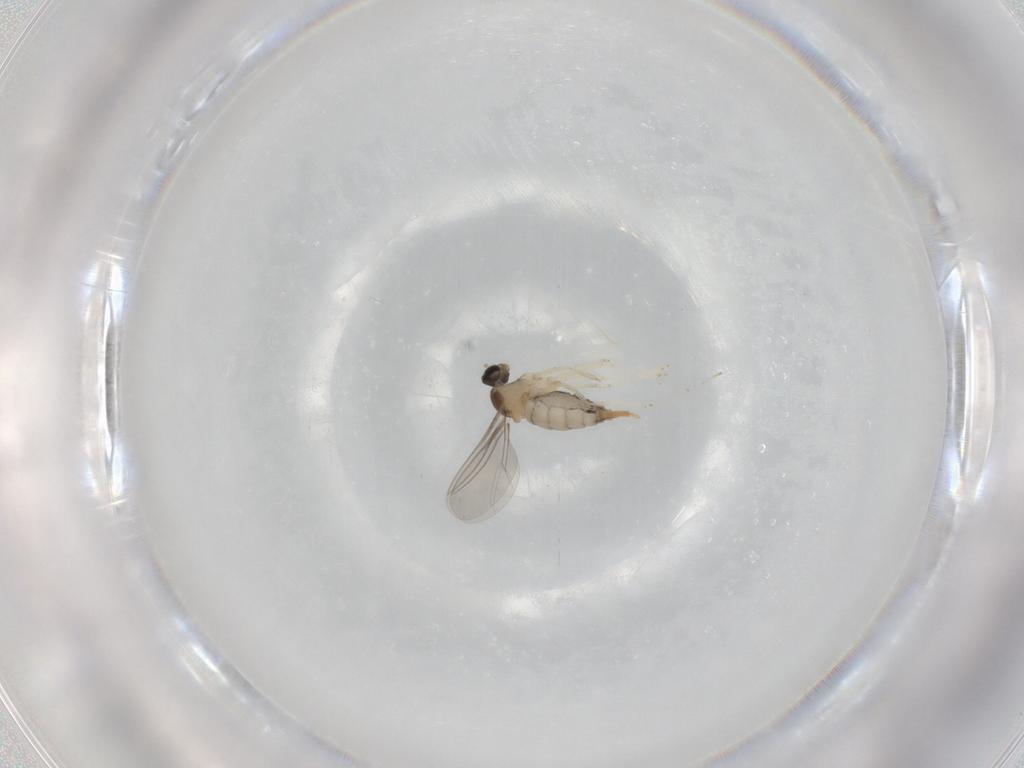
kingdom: Animalia
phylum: Arthropoda
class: Insecta
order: Diptera
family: Cecidomyiidae
